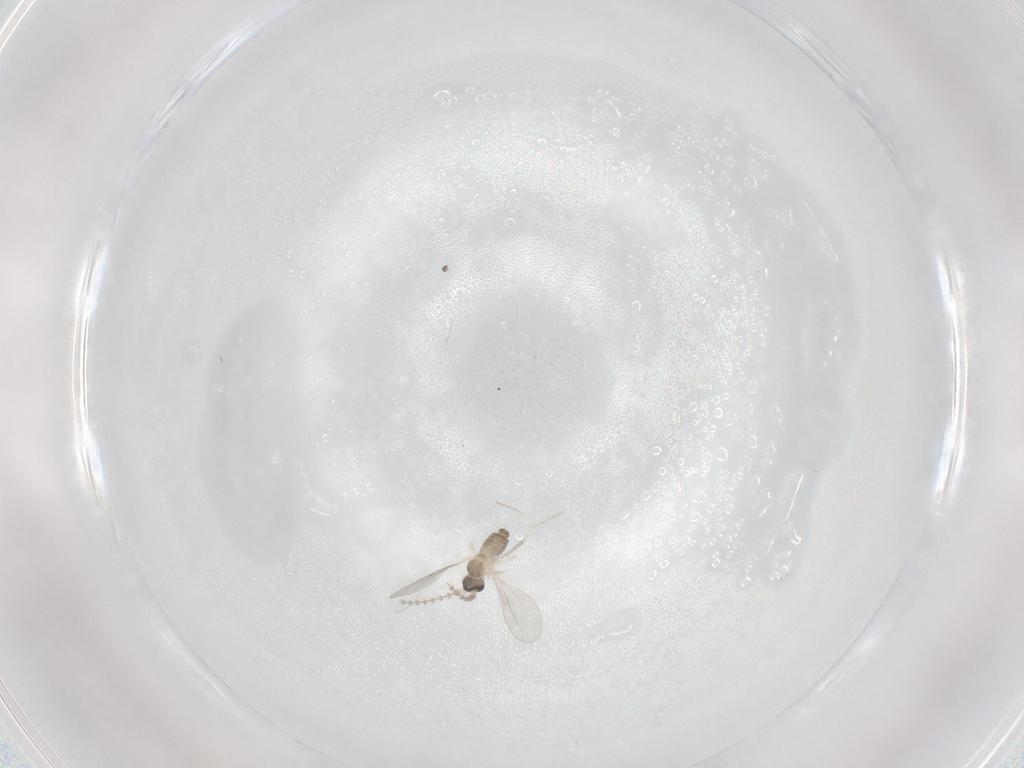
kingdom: Animalia
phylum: Arthropoda
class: Insecta
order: Diptera
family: Cecidomyiidae
